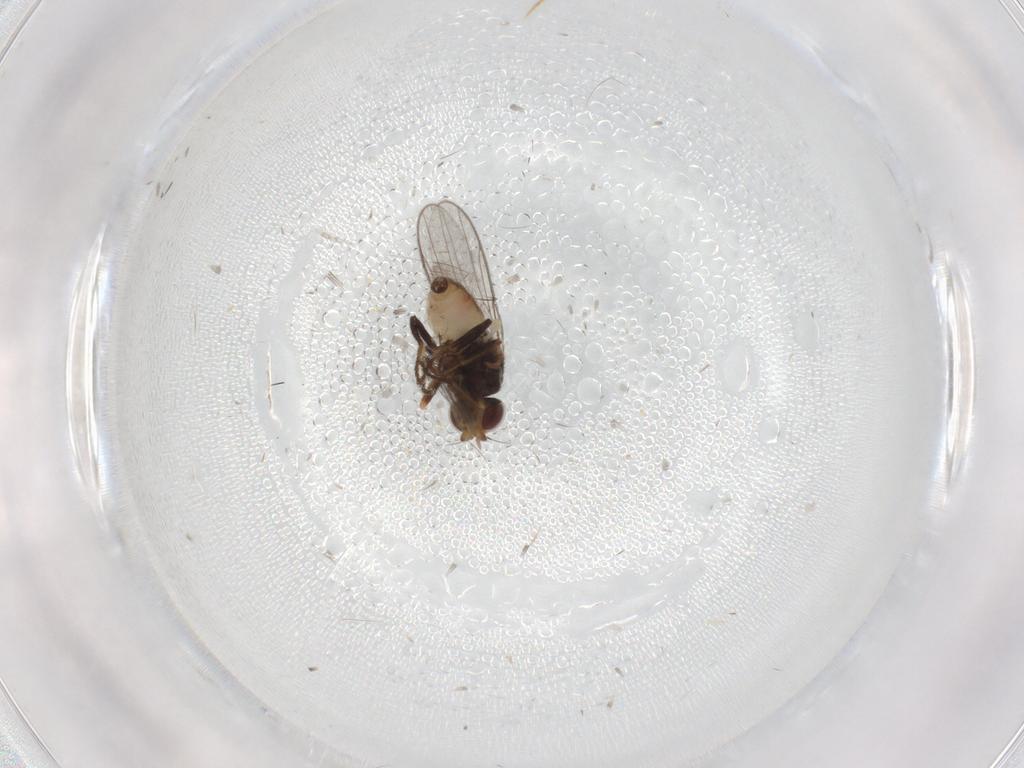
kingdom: Animalia
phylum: Arthropoda
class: Insecta
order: Diptera
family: Chloropidae
